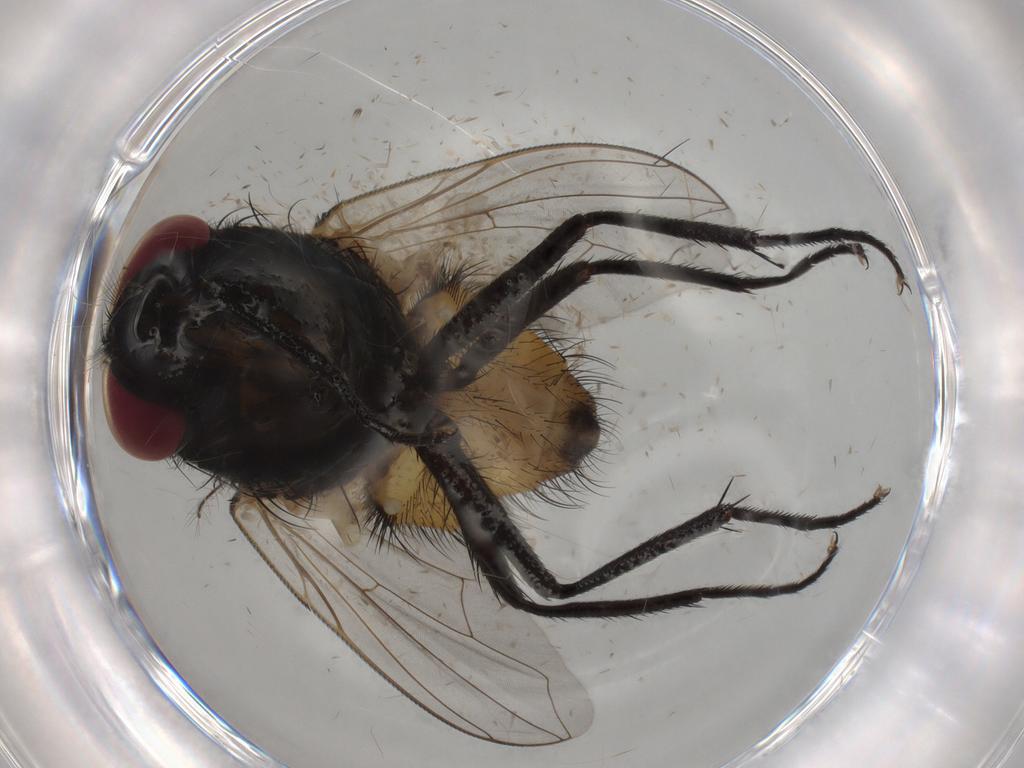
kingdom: Animalia
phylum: Arthropoda
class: Insecta
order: Diptera
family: Muscidae
